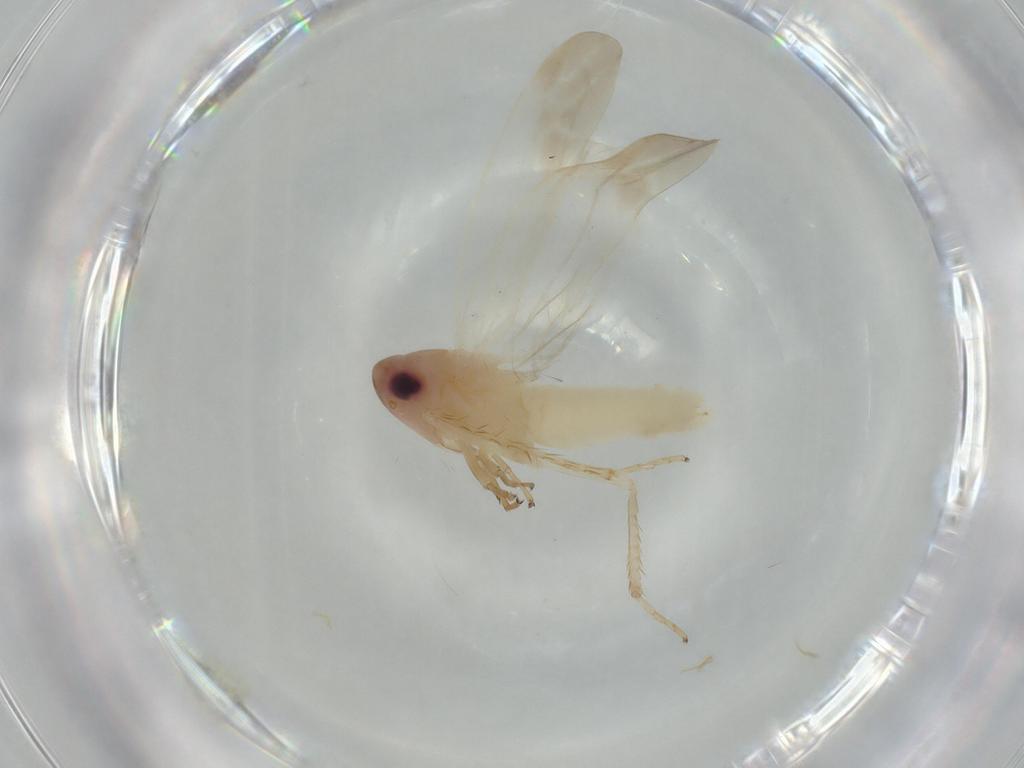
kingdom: Animalia
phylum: Arthropoda
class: Insecta
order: Hemiptera
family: Cicadellidae
